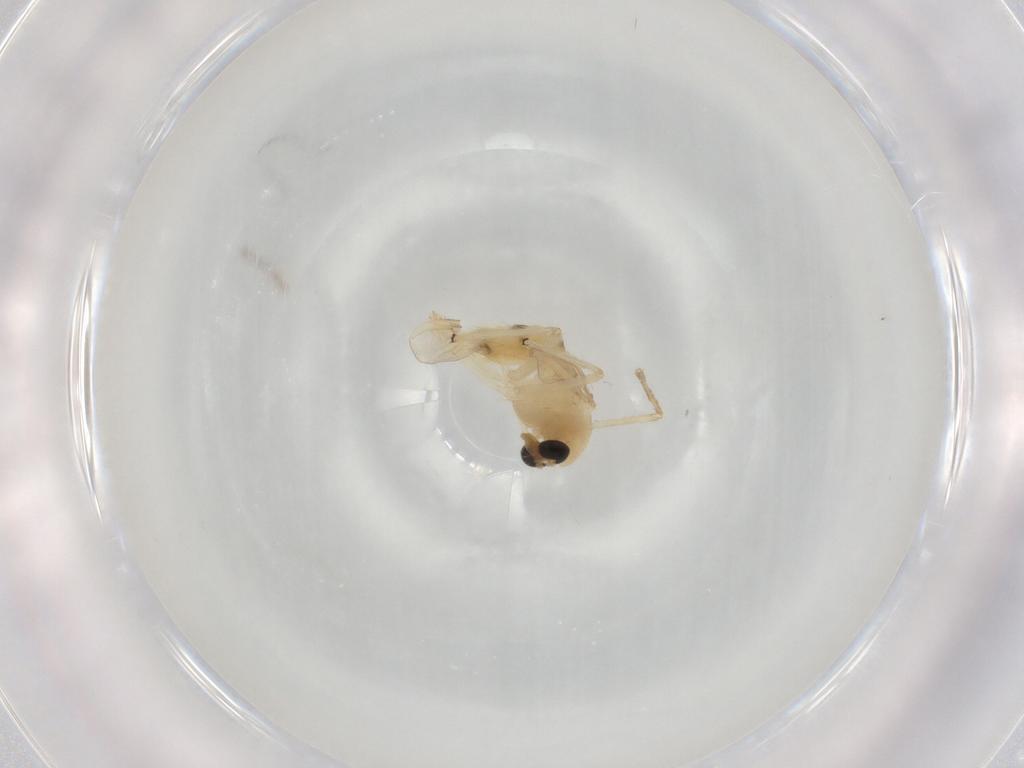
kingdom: Animalia
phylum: Arthropoda
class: Insecta
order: Diptera
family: Chironomidae
